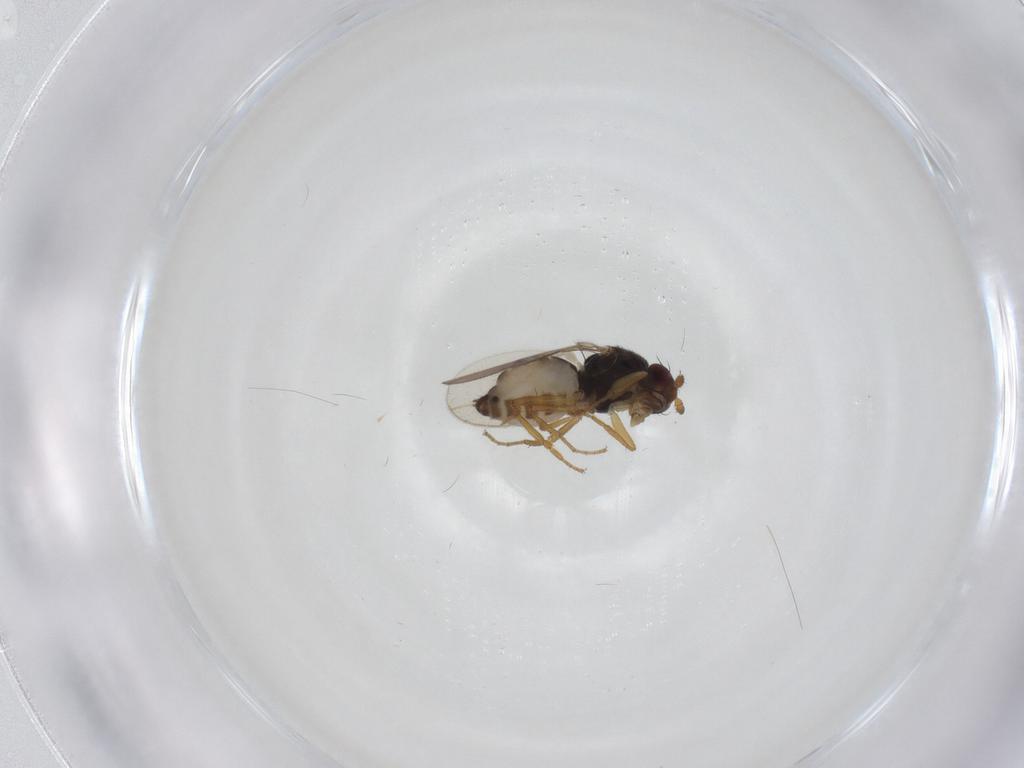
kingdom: Animalia
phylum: Arthropoda
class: Insecta
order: Diptera
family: Sphaeroceridae
